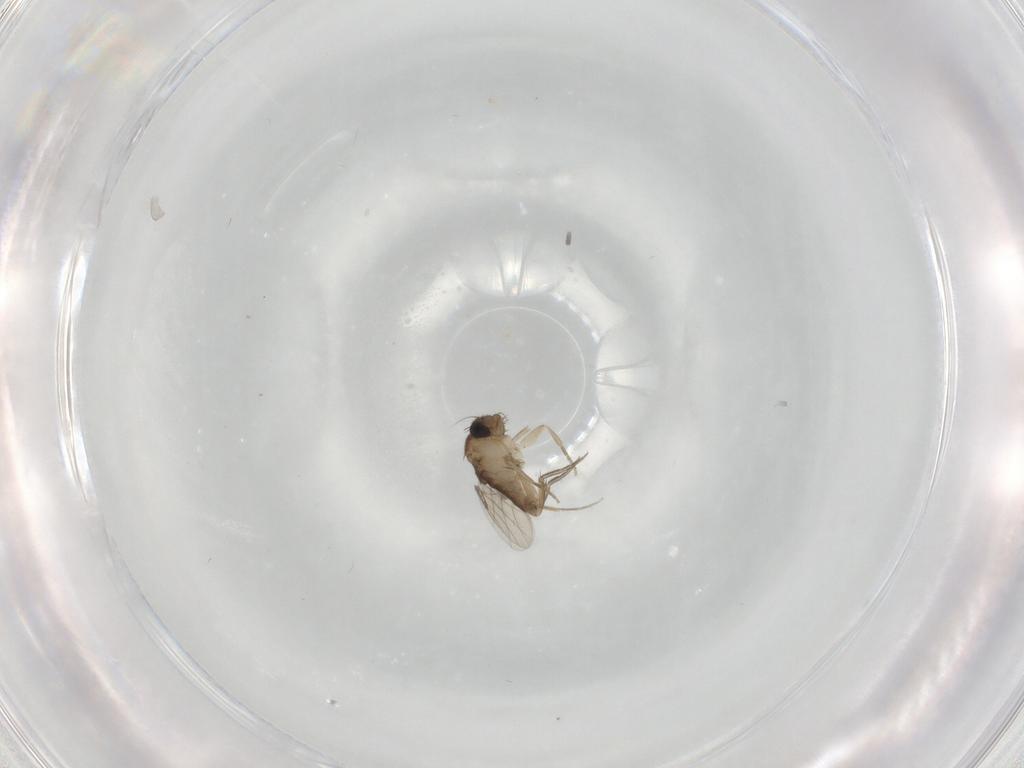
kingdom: Animalia
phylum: Arthropoda
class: Insecta
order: Diptera
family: Phoridae
